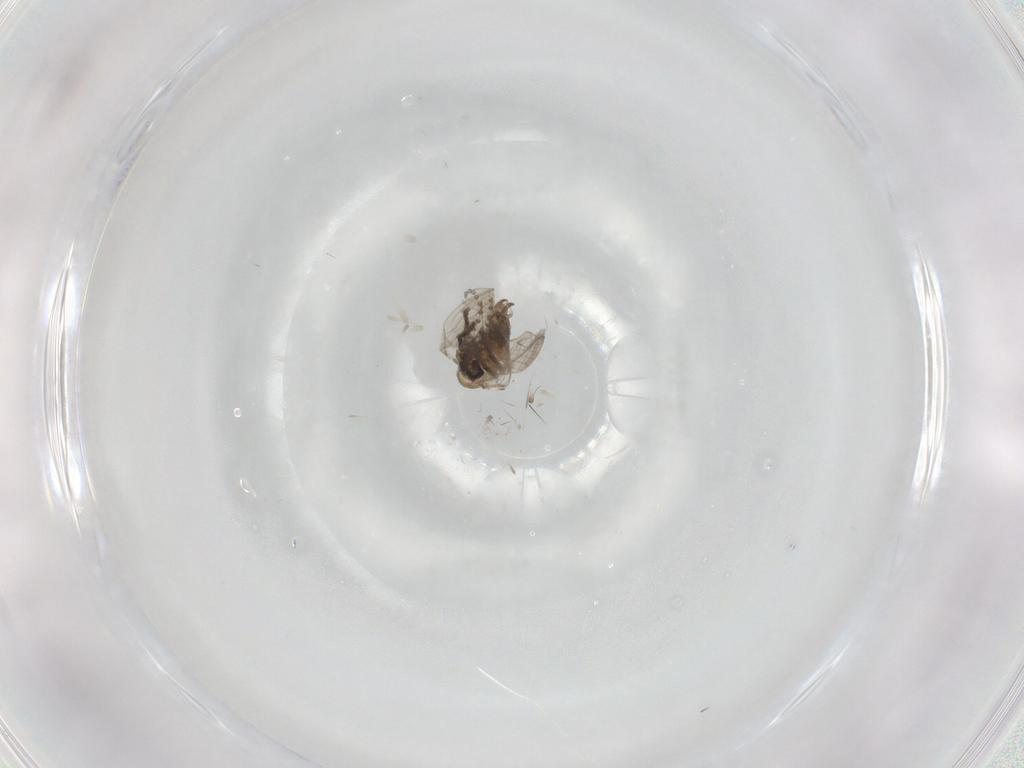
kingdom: Animalia
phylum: Arthropoda
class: Insecta
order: Diptera
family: Psychodidae
